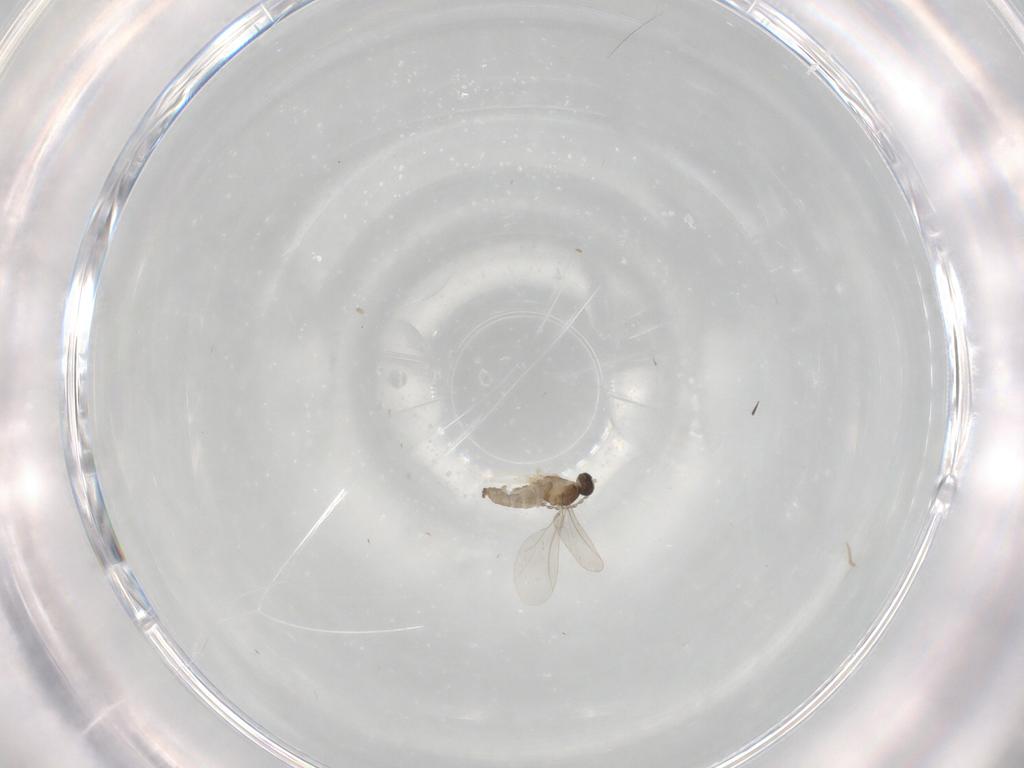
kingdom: Animalia
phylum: Arthropoda
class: Insecta
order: Diptera
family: Cecidomyiidae
